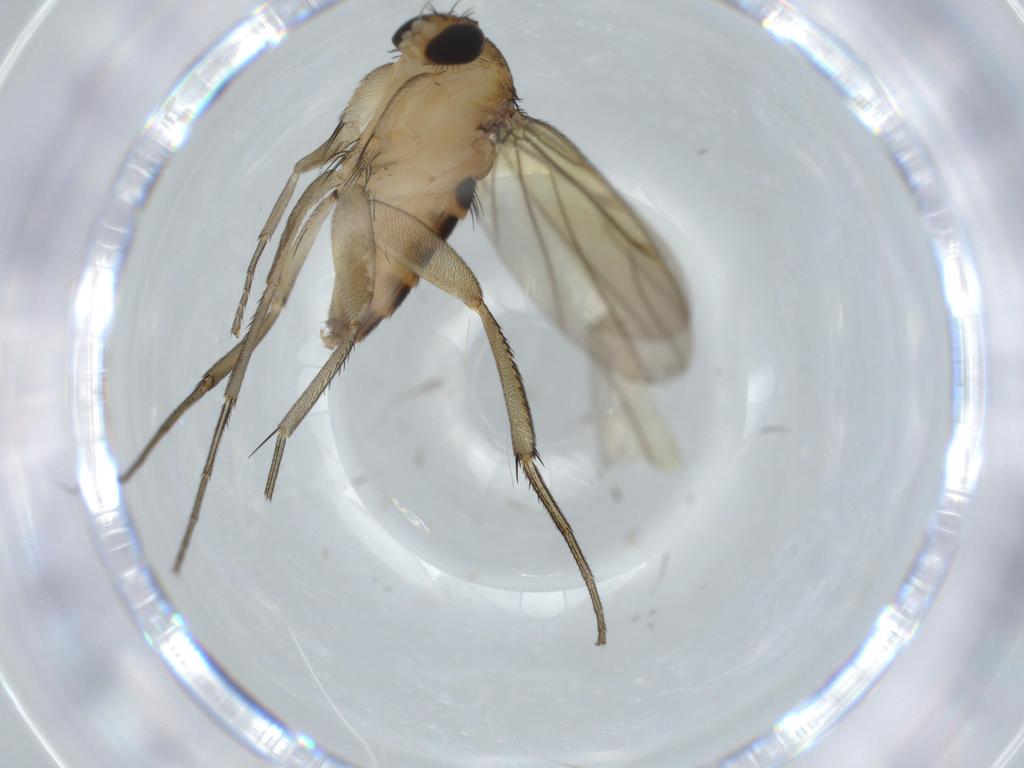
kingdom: Animalia
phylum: Arthropoda
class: Insecta
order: Diptera
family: Phoridae
